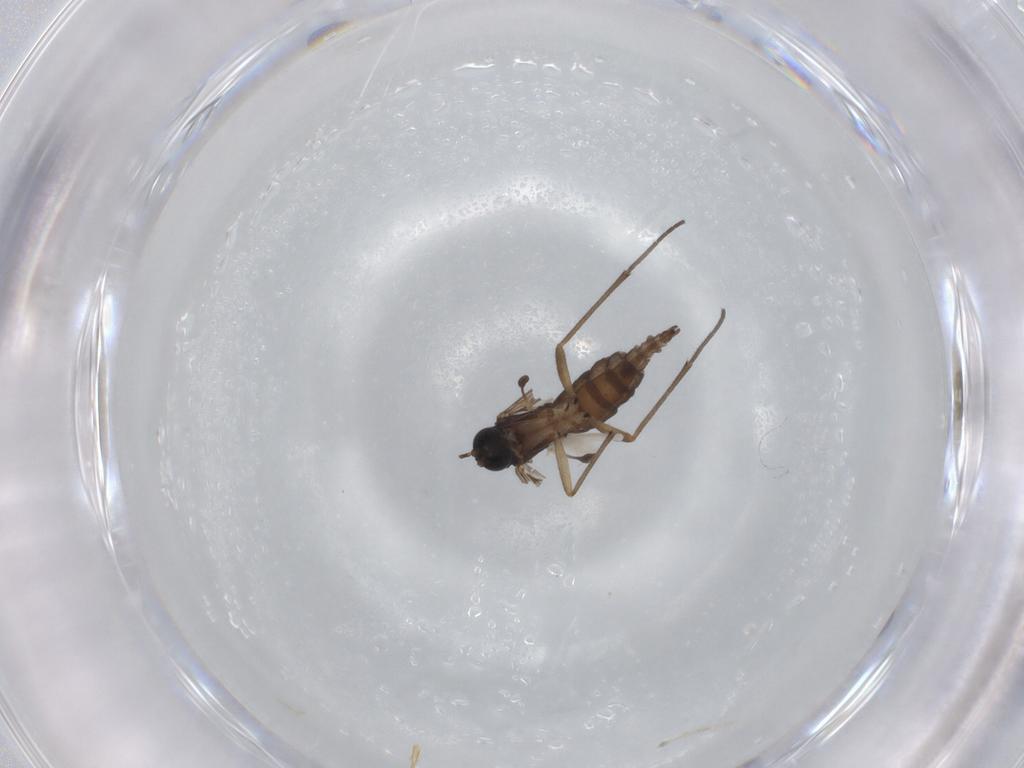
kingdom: Animalia
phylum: Arthropoda
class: Insecta
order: Diptera
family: Sciaridae
